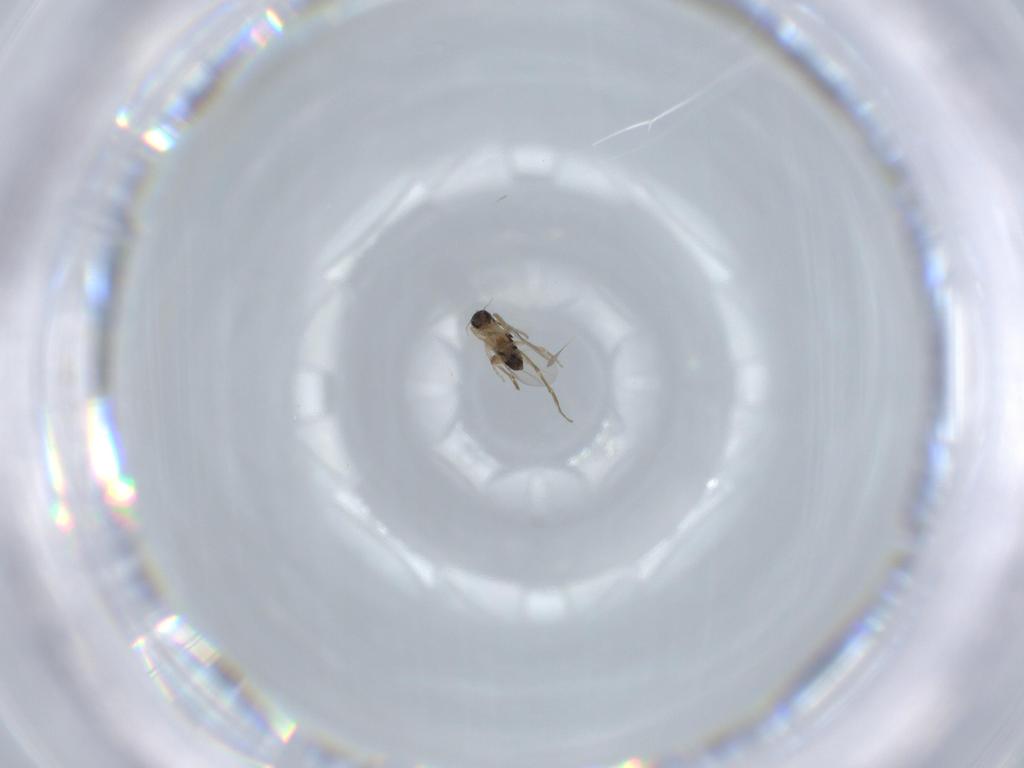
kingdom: Animalia
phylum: Arthropoda
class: Insecta
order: Diptera
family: Phoridae
